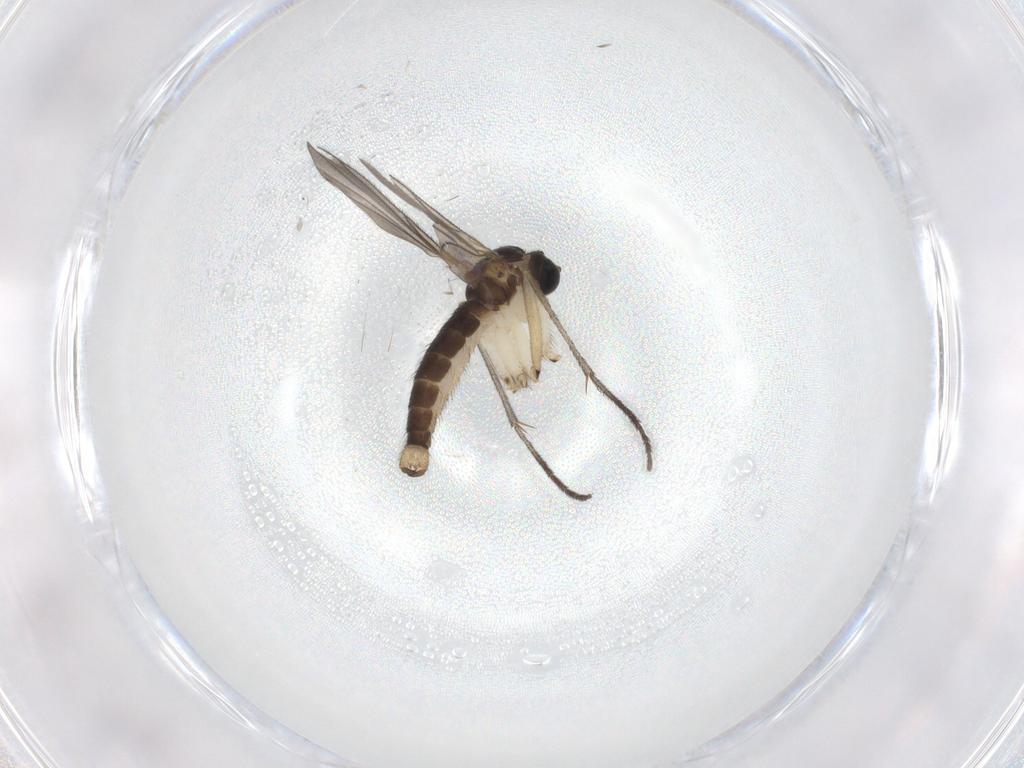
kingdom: Animalia
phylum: Arthropoda
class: Insecta
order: Diptera
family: Sciaridae
